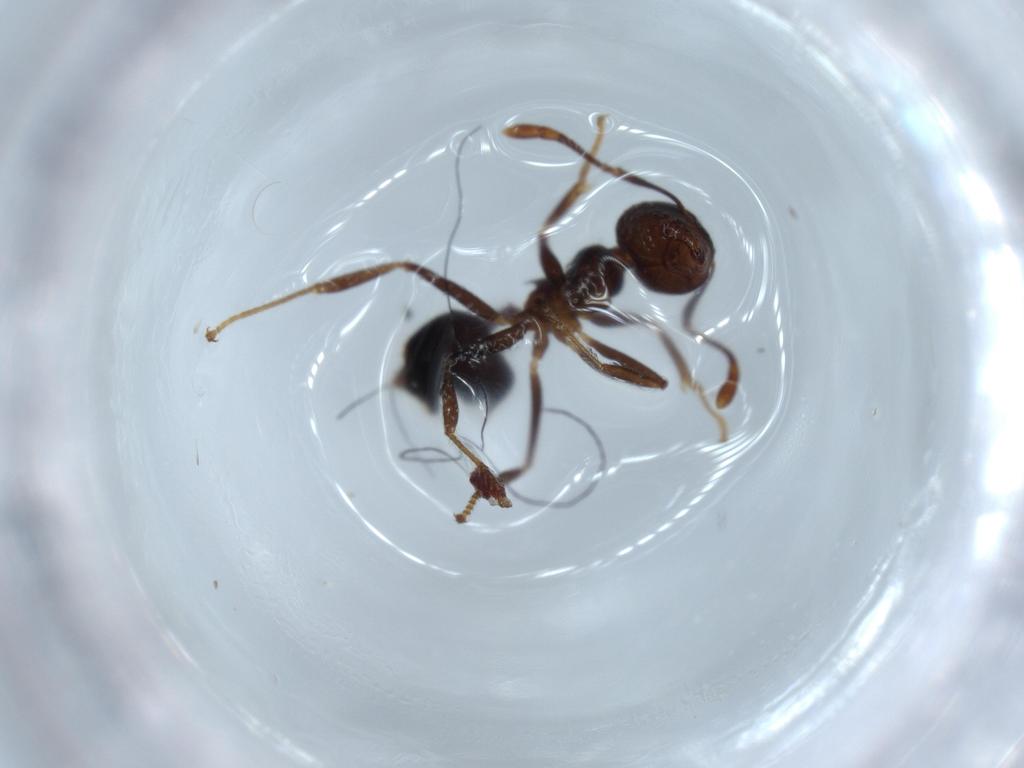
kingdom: Animalia
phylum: Arthropoda
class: Insecta
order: Hymenoptera
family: Formicidae
